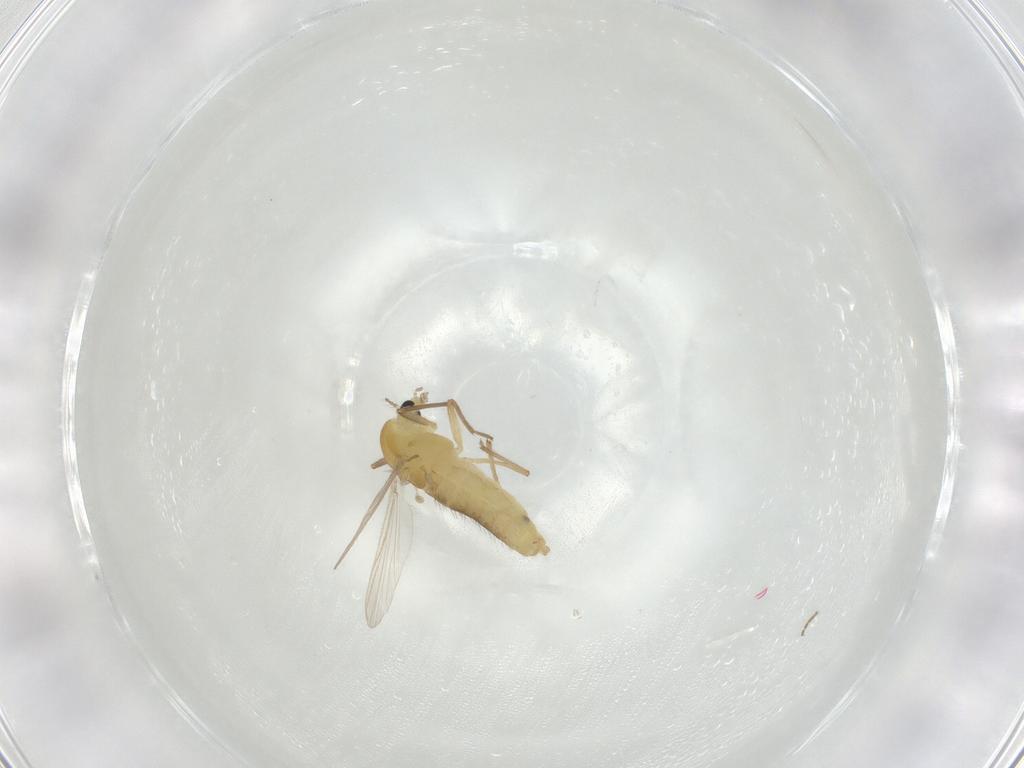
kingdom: Animalia
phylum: Arthropoda
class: Insecta
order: Diptera
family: Chironomidae
